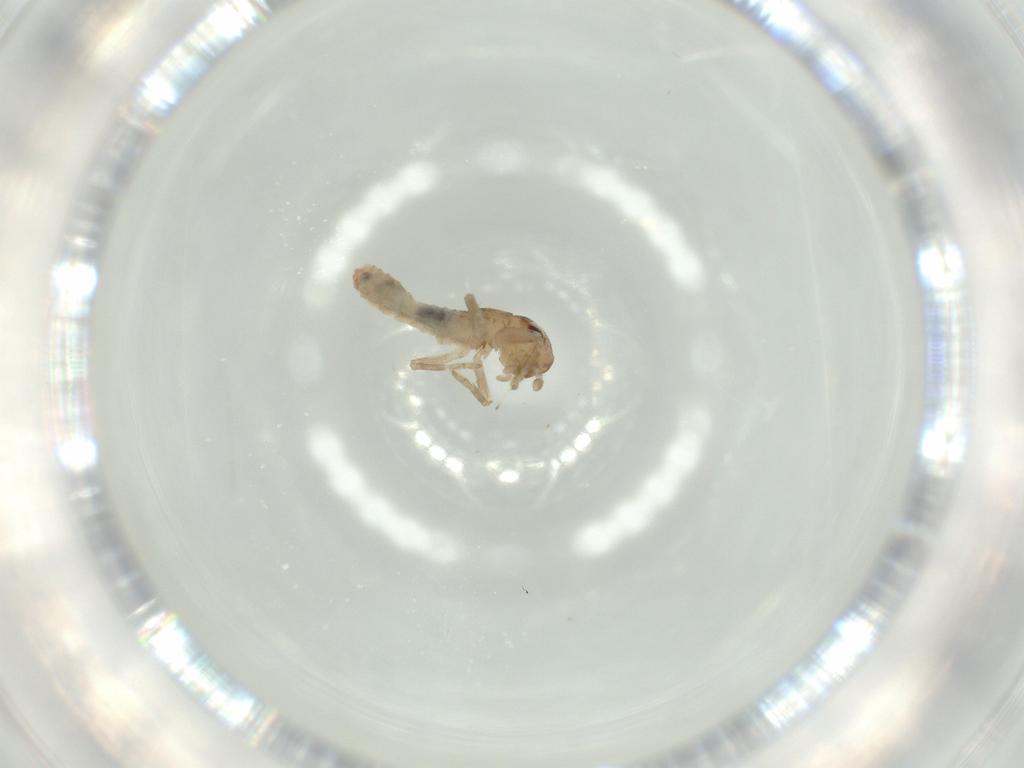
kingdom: Animalia
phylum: Arthropoda
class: Insecta
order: Orthoptera
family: Mogoplistidae
